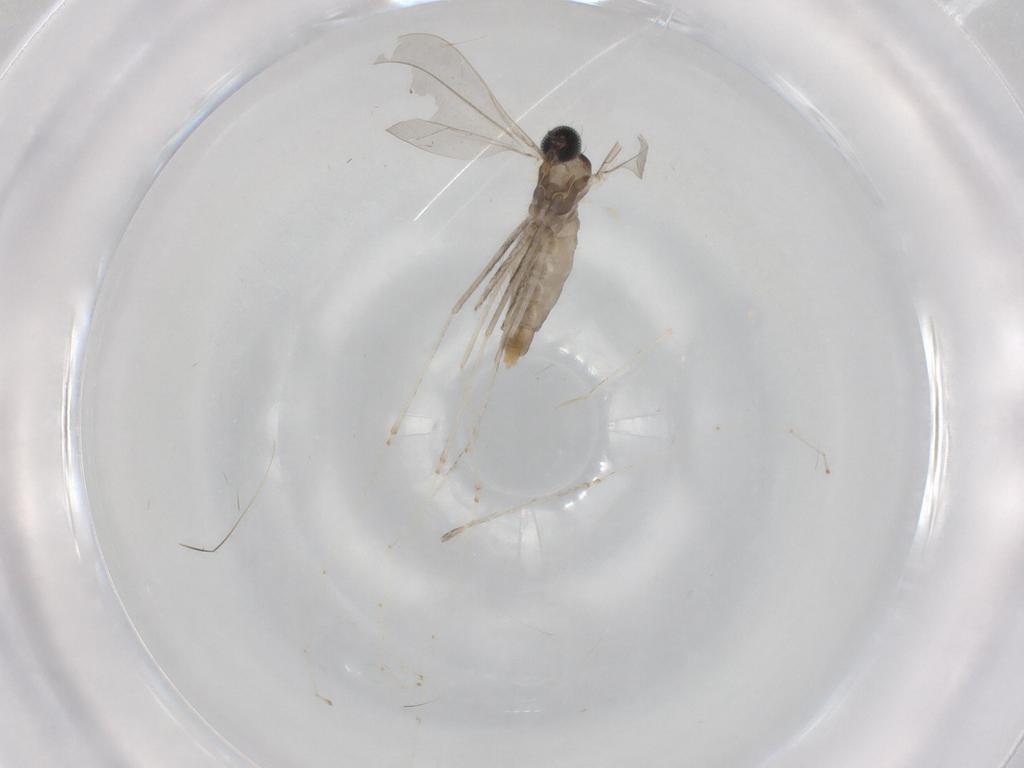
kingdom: Animalia
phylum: Arthropoda
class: Insecta
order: Diptera
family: Cecidomyiidae
